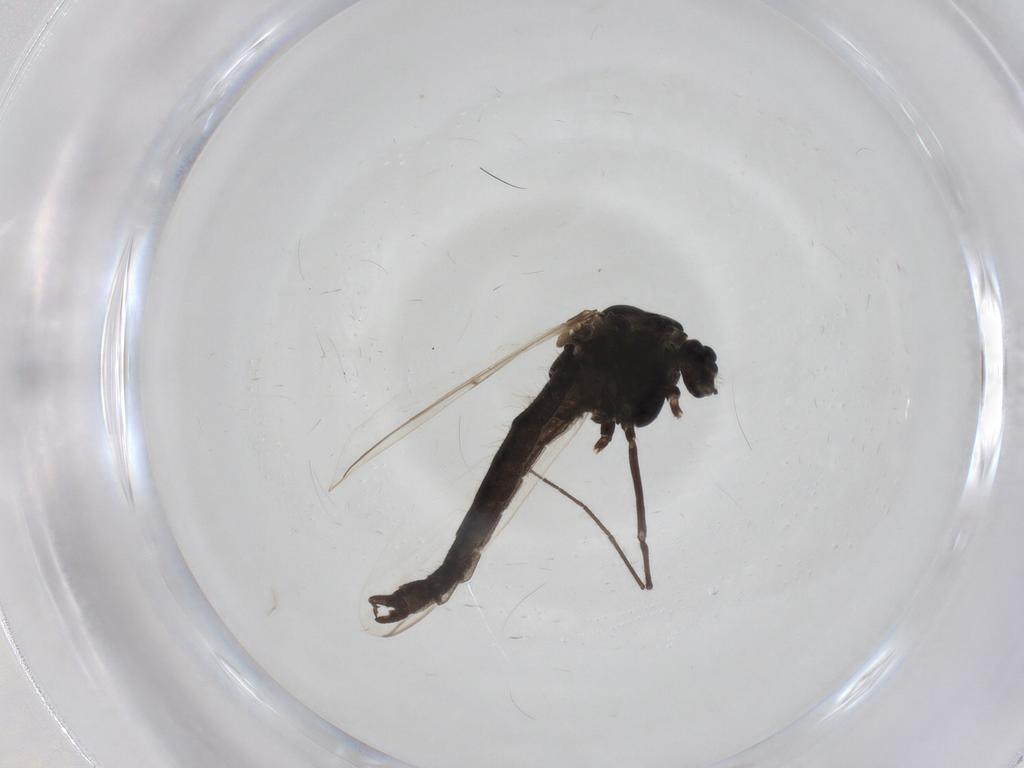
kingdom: Animalia
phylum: Arthropoda
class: Insecta
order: Diptera
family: Chironomidae
